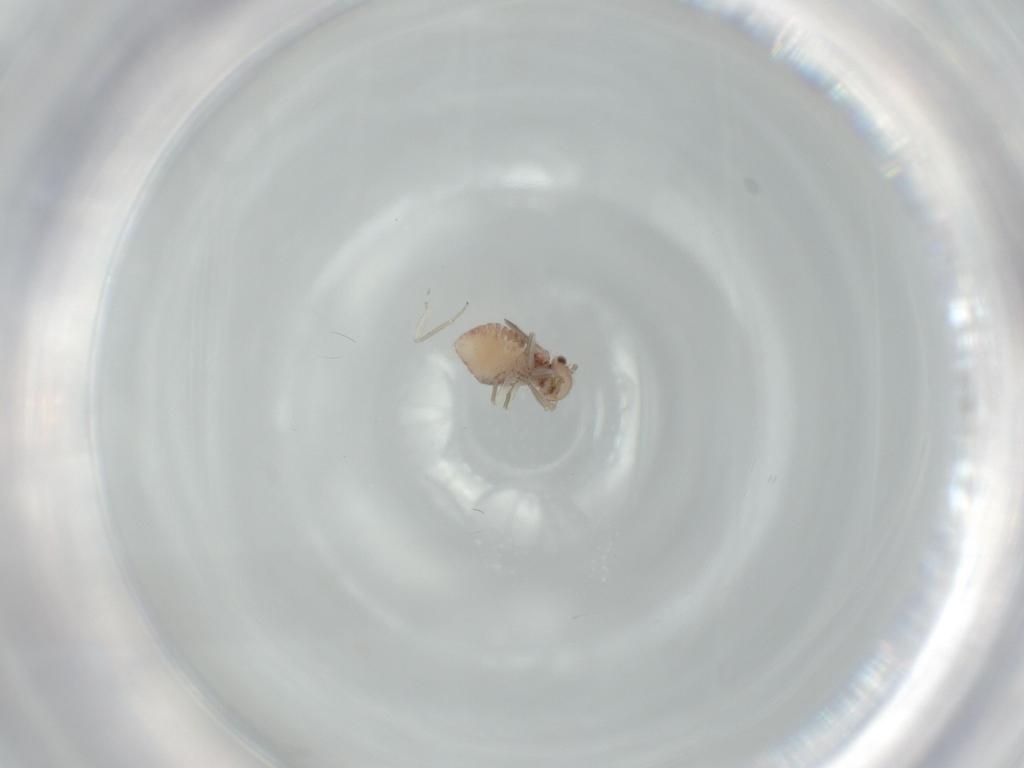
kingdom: Animalia
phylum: Arthropoda
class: Insecta
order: Psocodea
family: Ectopsocidae
